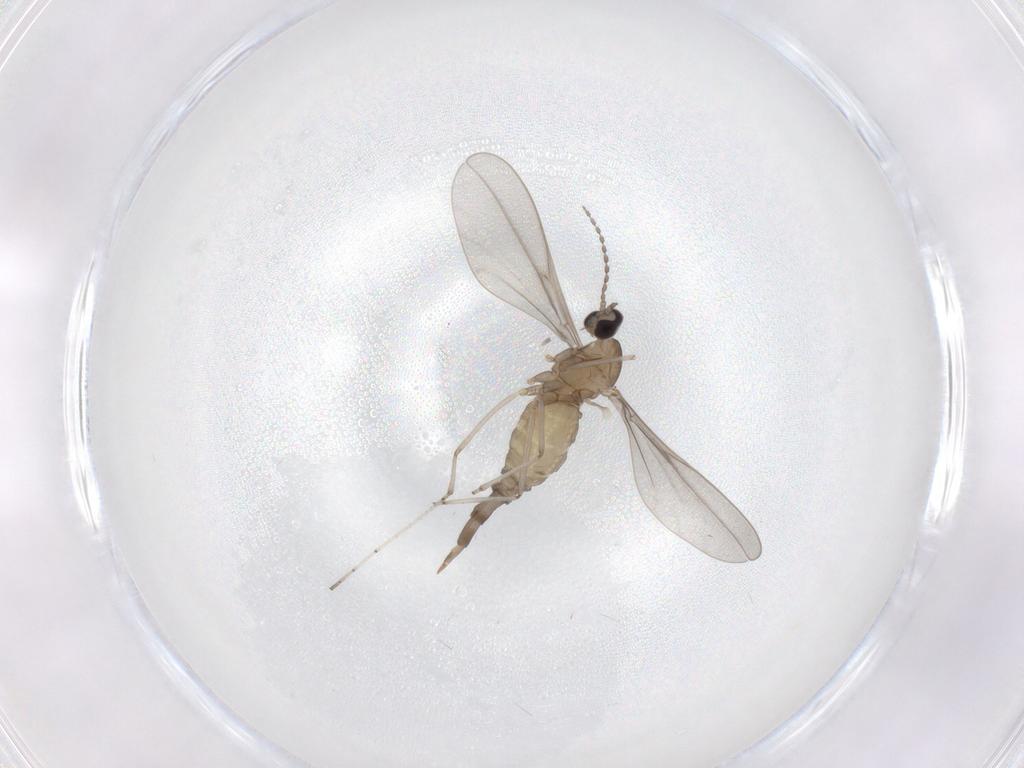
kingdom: Animalia
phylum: Arthropoda
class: Insecta
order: Diptera
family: Cecidomyiidae
